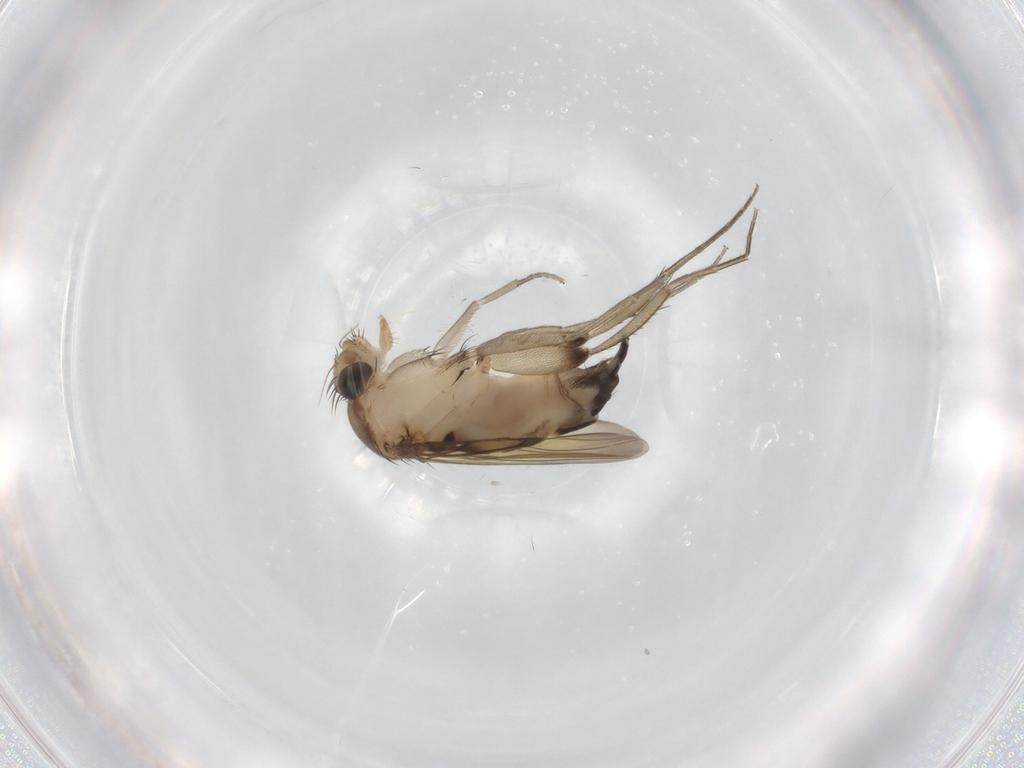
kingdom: Animalia
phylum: Arthropoda
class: Insecta
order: Diptera
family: Phoridae
